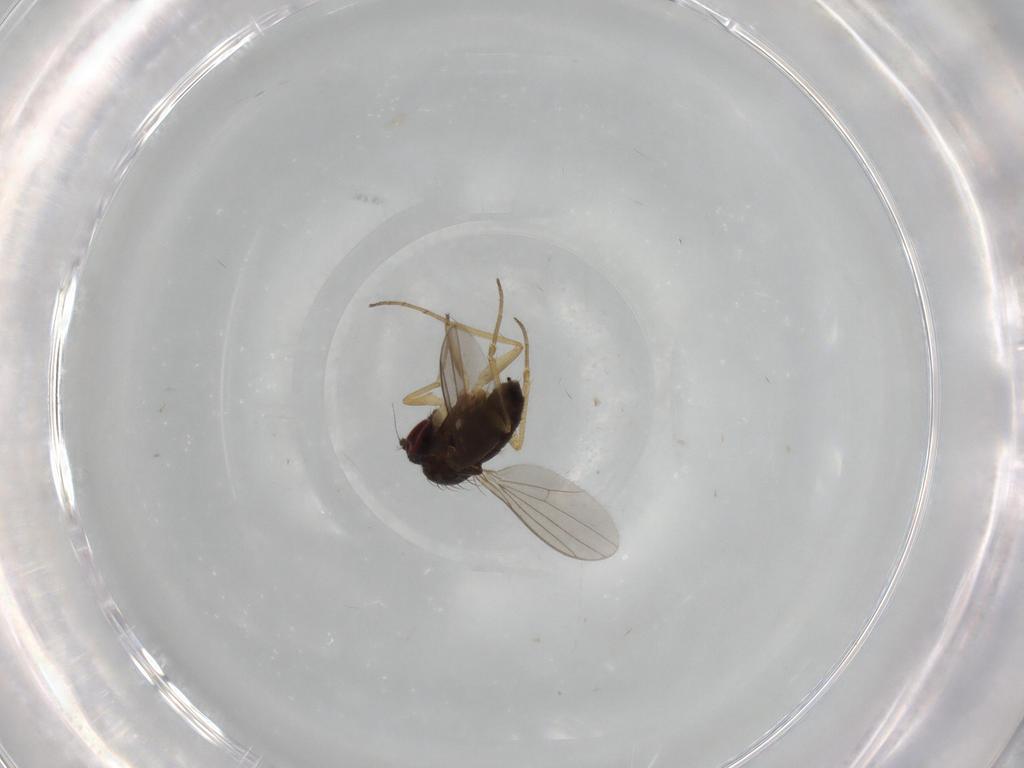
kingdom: Animalia
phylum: Arthropoda
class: Insecta
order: Diptera
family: Dolichopodidae
